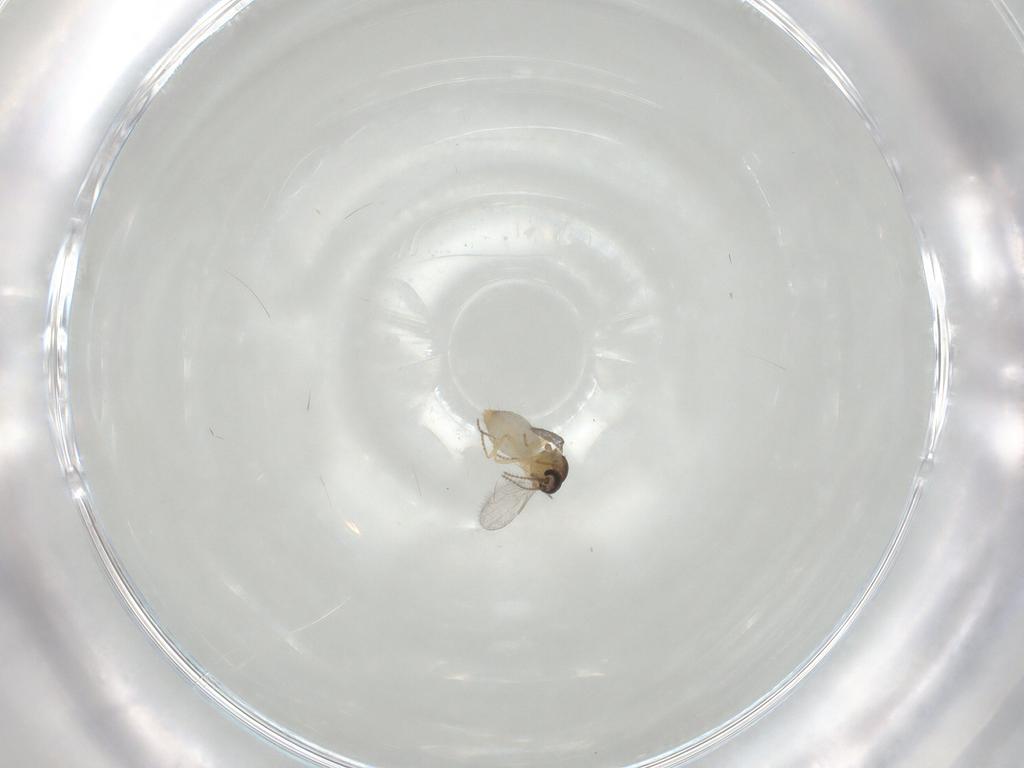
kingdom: Animalia
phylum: Arthropoda
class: Insecta
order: Diptera
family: Ceratopogonidae
